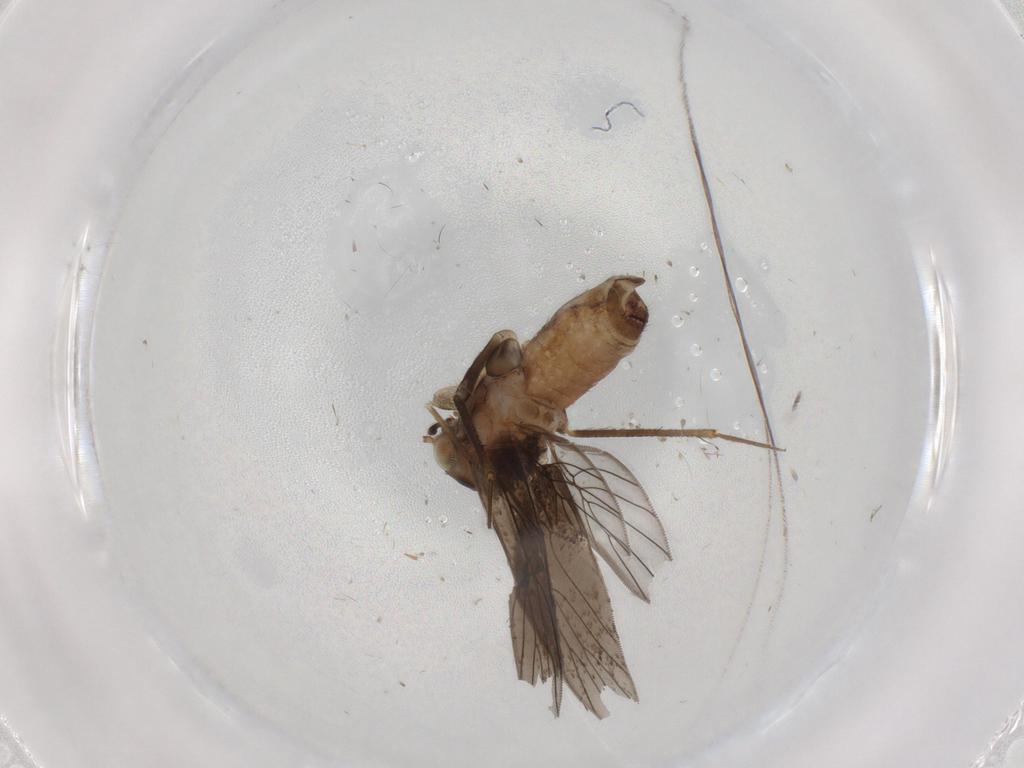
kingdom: Animalia
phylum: Arthropoda
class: Insecta
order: Psocodea
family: Lepidopsocidae
